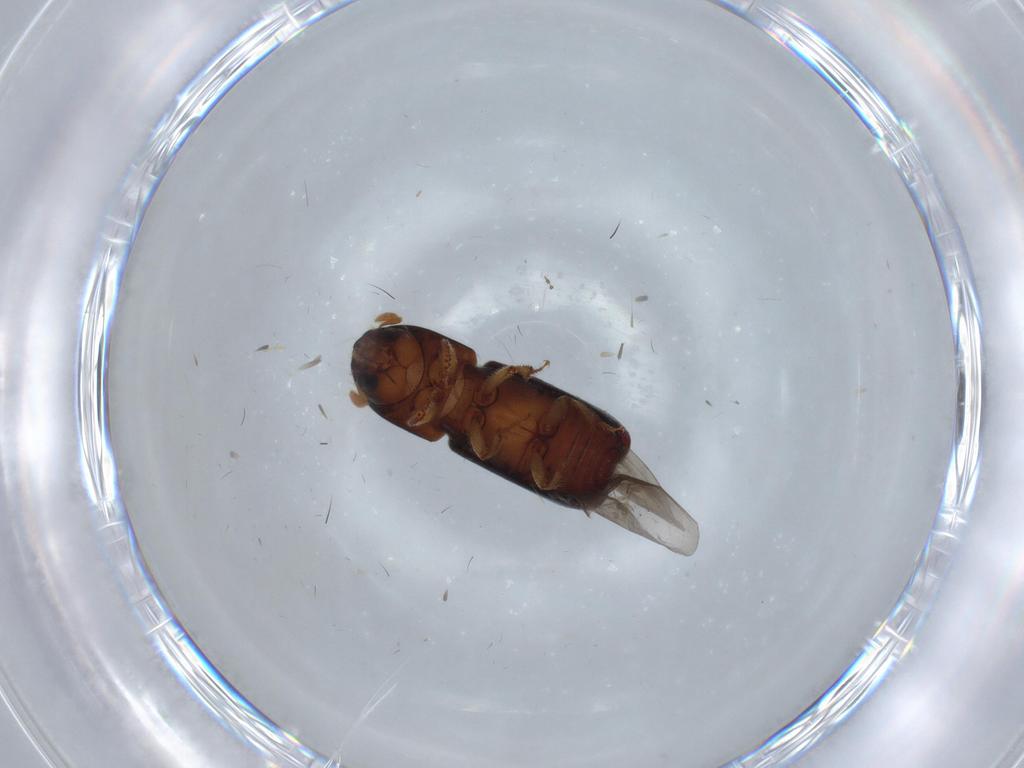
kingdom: Animalia
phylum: Arthropoda
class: Insecta
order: Coleoptera
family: Curculionidae
